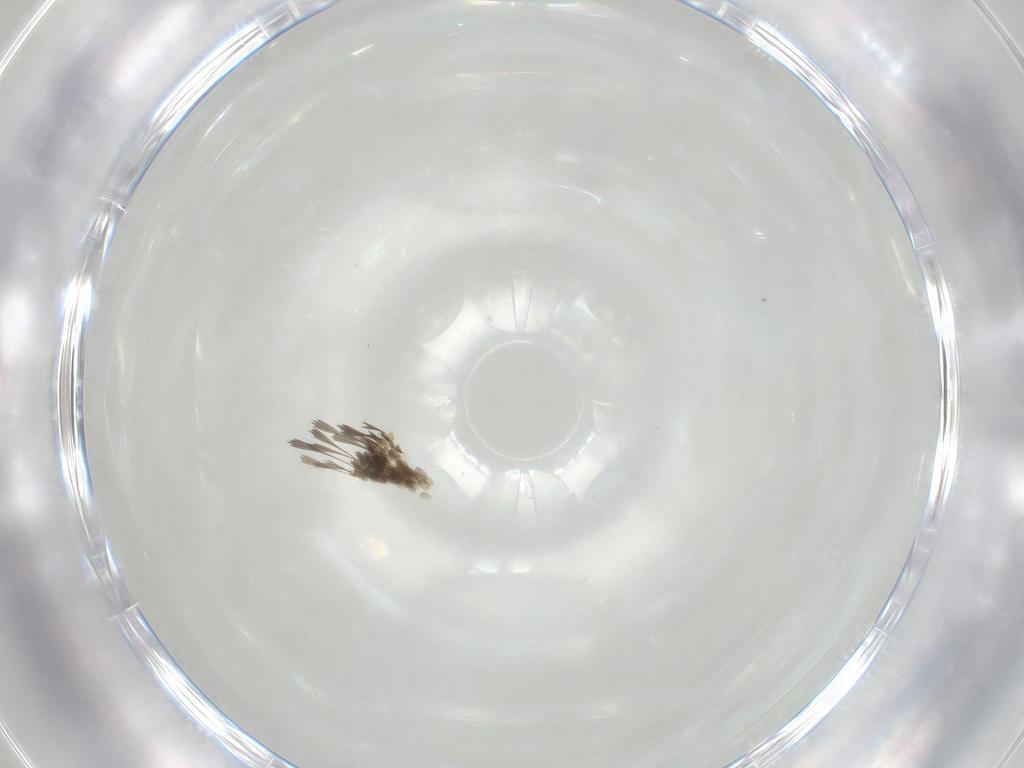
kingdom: Animalia
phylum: Arthropoda
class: Insecta
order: Lepidoptera
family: Erebidae
